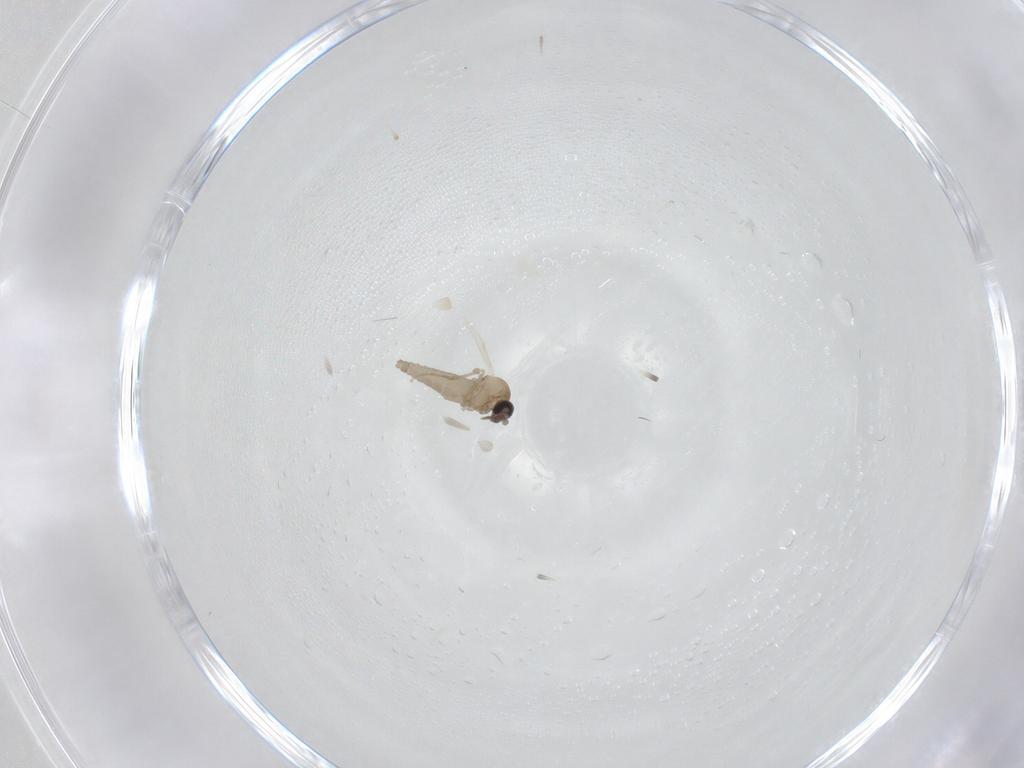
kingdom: Animalia
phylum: Arthropoda
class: Insecta
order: Diptera
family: Ceratopogonidae
